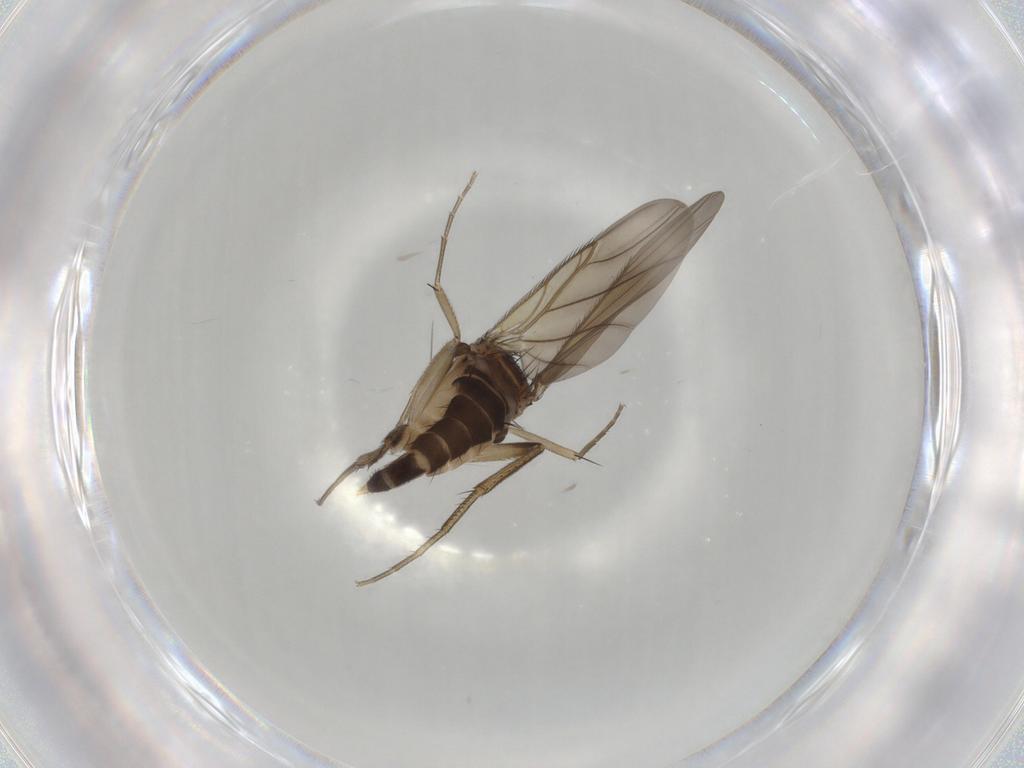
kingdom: Animalia
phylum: Arthropoda
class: Insecta
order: Diptera
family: Phoridae
